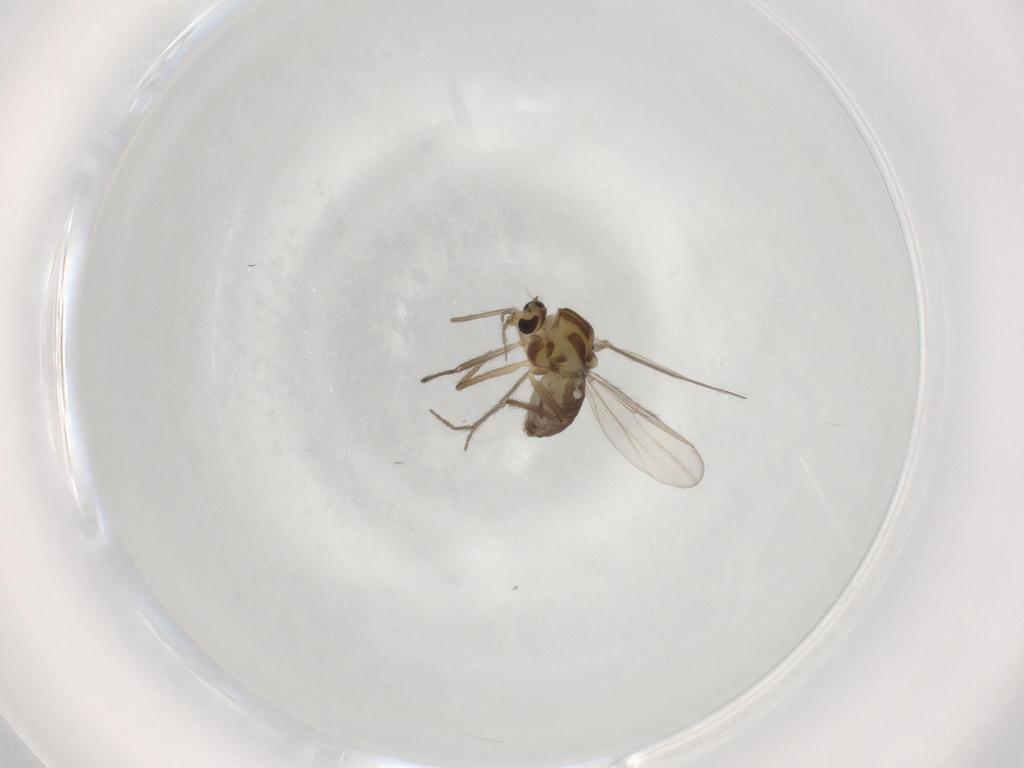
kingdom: Animalia
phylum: Arthropoda
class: Insecta
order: Diptera
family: Chironomidae
